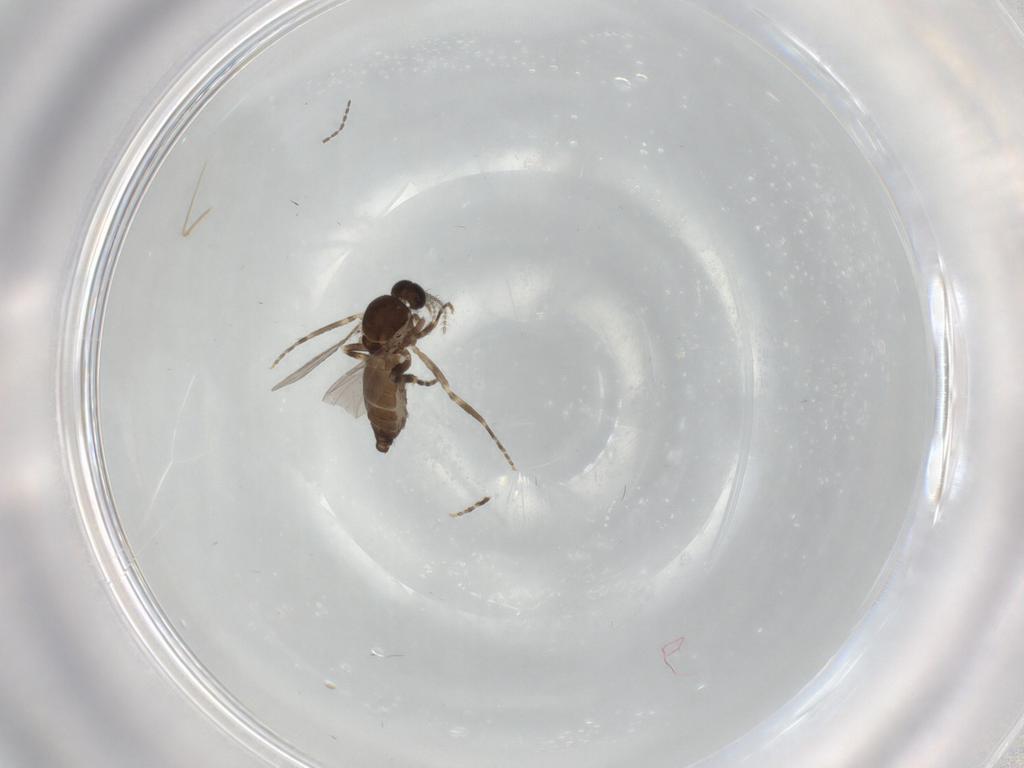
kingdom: Animalia
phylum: Arthropoda
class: Insecta
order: Diptera
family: Ceratopogonidae
